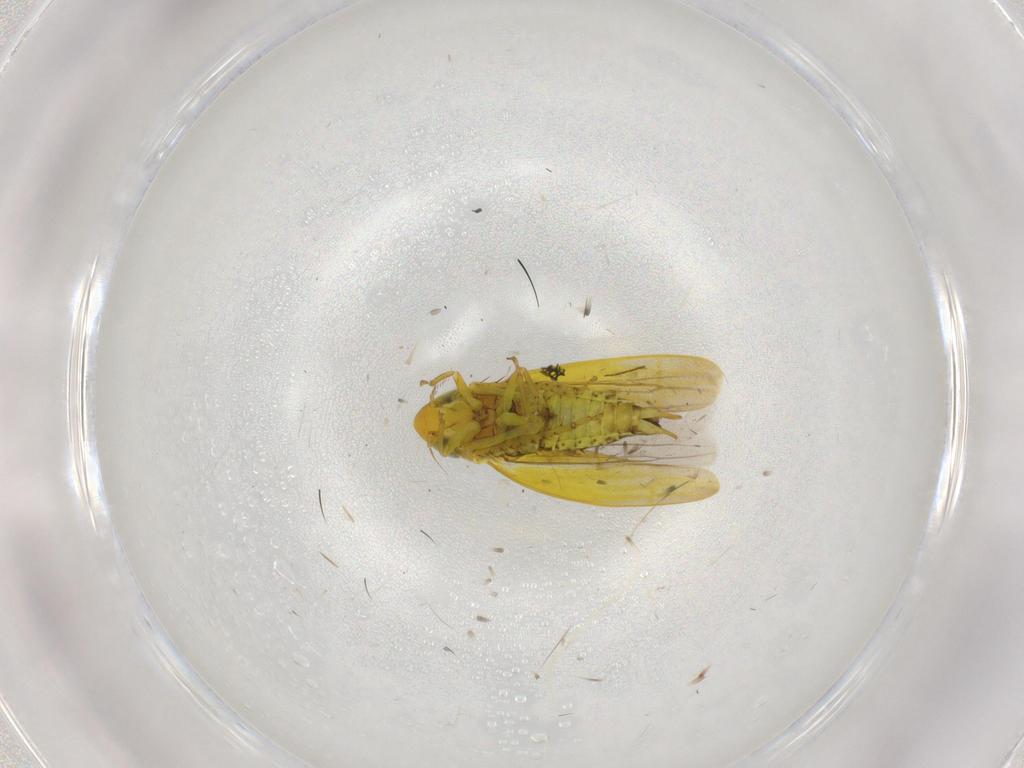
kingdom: Animalia
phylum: Arthropoda
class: Insecta
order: Hemiptera
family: Cicadellidae
